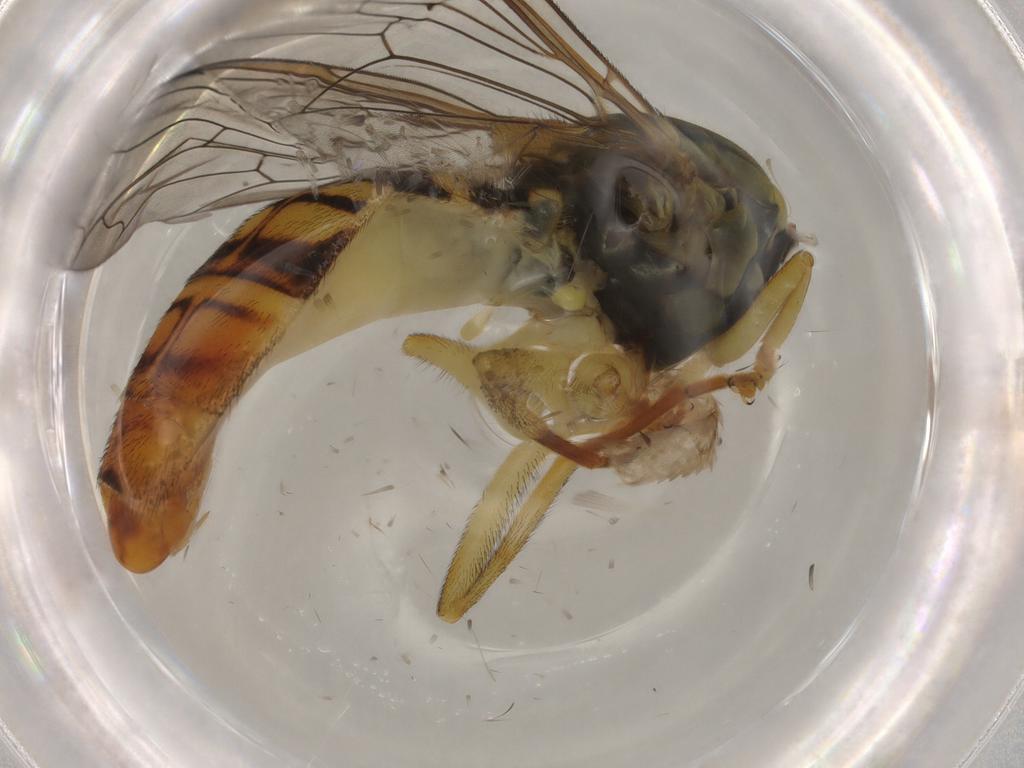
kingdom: Animalia
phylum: Arthropoda
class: Insecta
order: Diptera
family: Syrphidae
